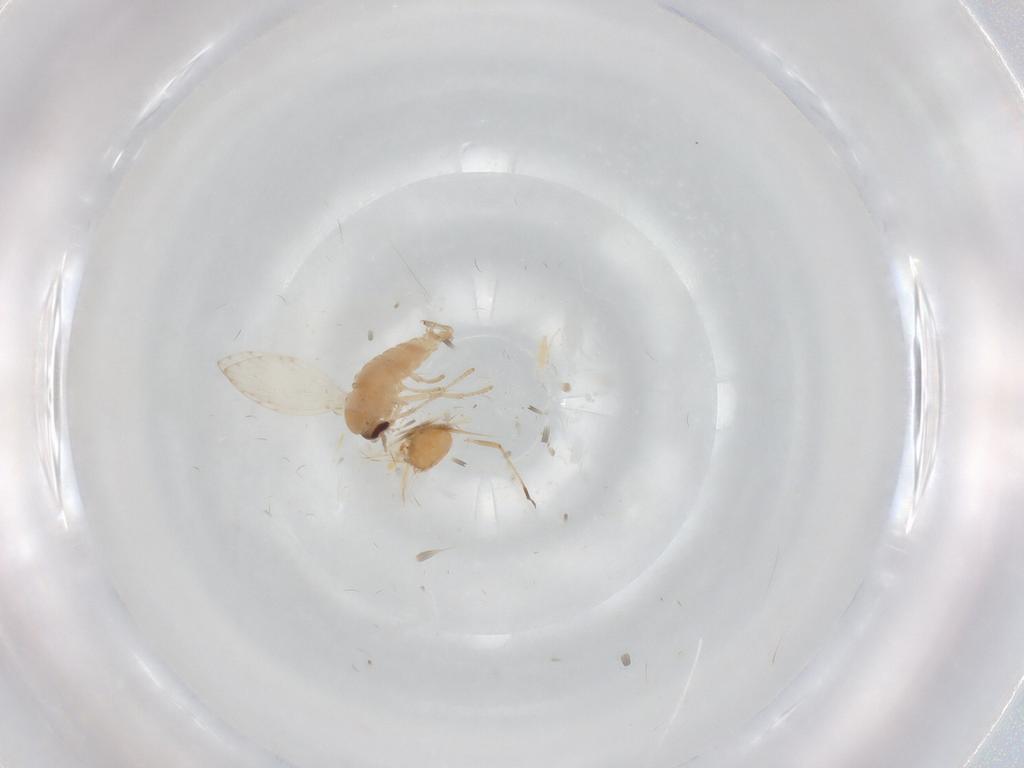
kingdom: Animalia
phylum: Arthropoda
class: Insecta
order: Diptera
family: Psychodidae
